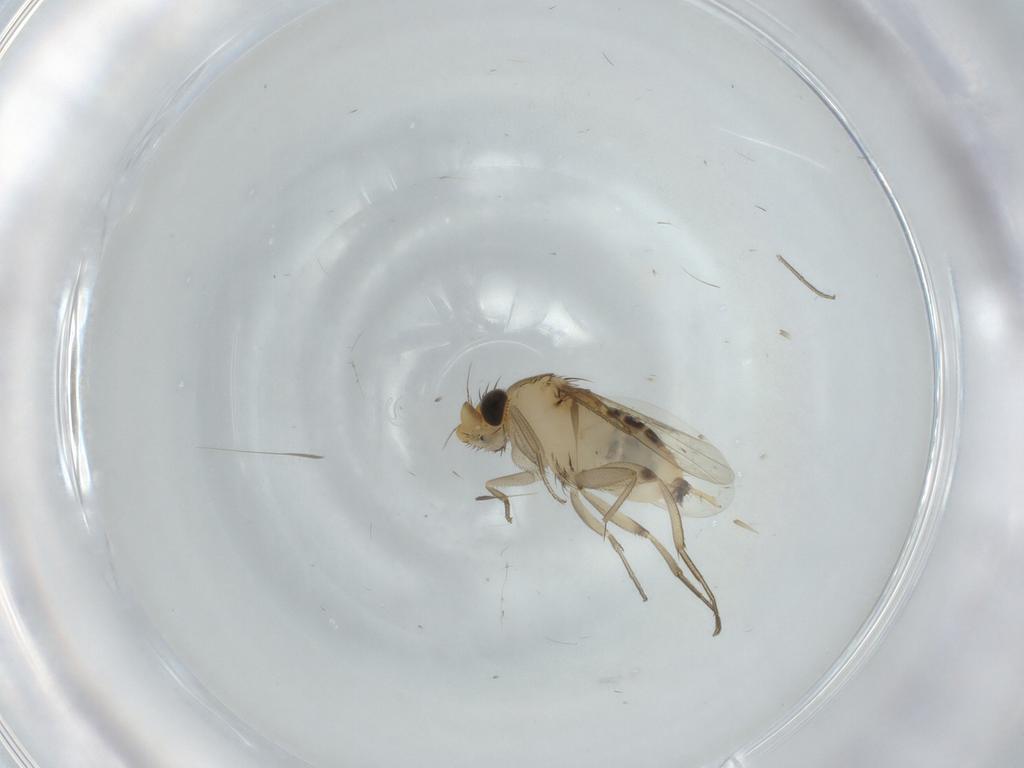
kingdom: Animalia
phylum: Arthropoda
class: Insecta
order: Diptera
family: Phoridae
